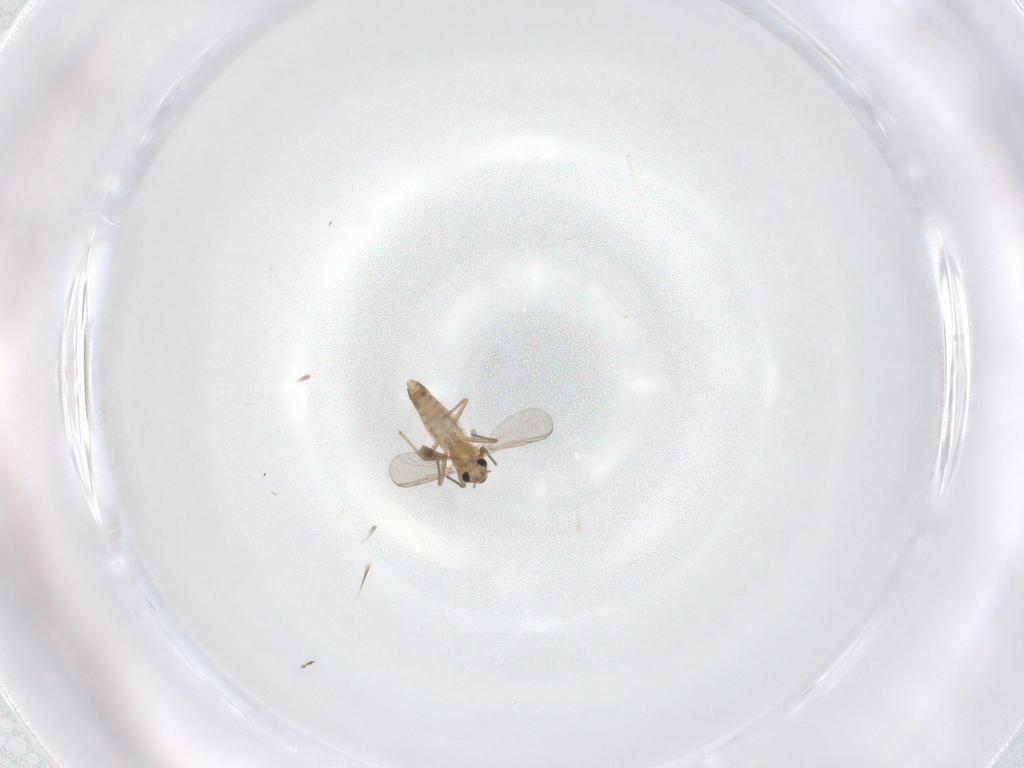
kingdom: Animalia
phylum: Arthropoda
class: Insecta
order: Diptera
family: Chironomidae
